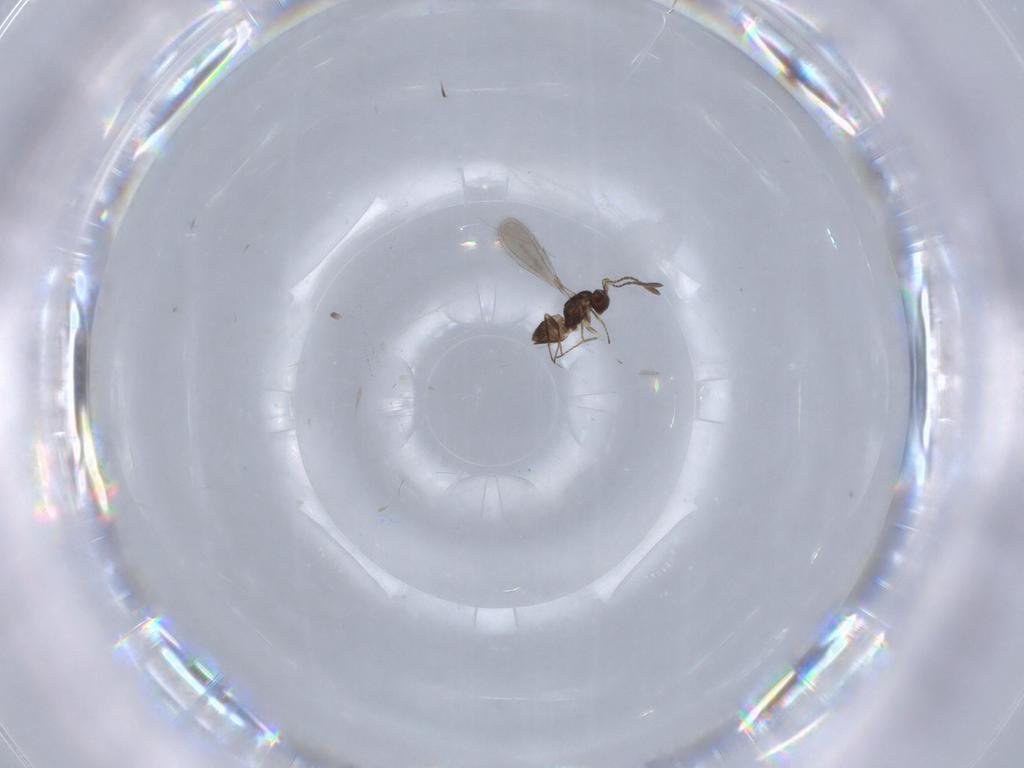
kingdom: Animalia
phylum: Arthropoda
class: Insecta
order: Hymenoptera
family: Mymaridae
